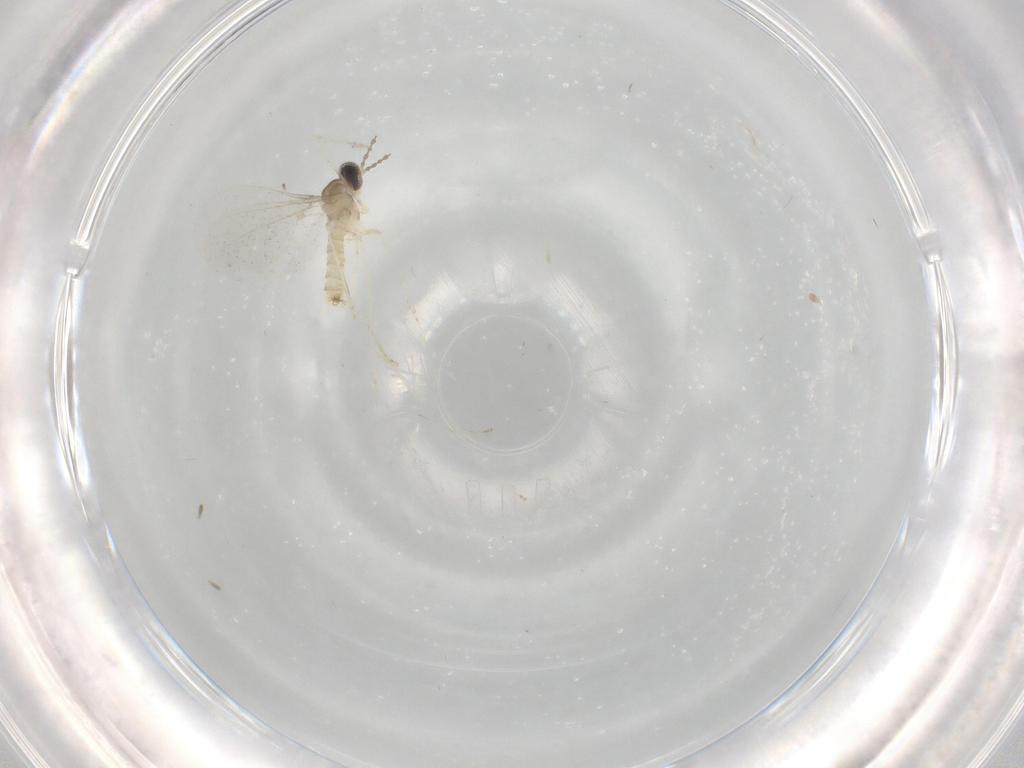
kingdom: Animalia
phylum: Arthropoda
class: Insecta
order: Diptera
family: Cecidomyiidae
